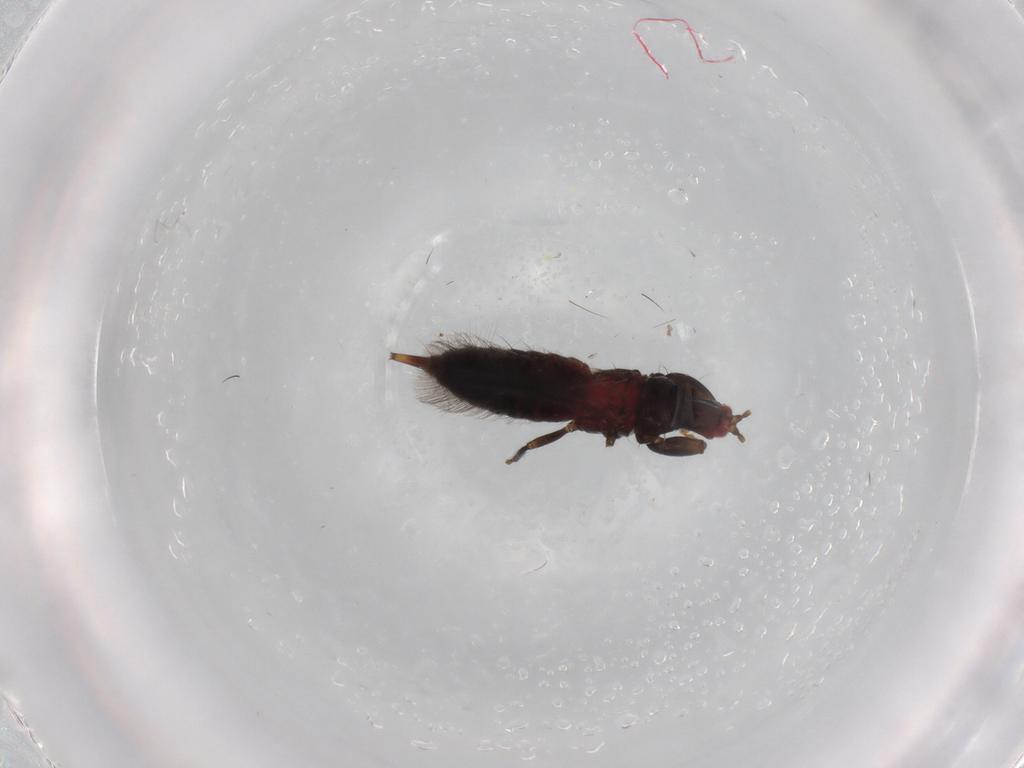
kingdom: Animalia
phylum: Arthropoda
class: Insecta
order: Thysanoptera
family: Phlaeothripidae
